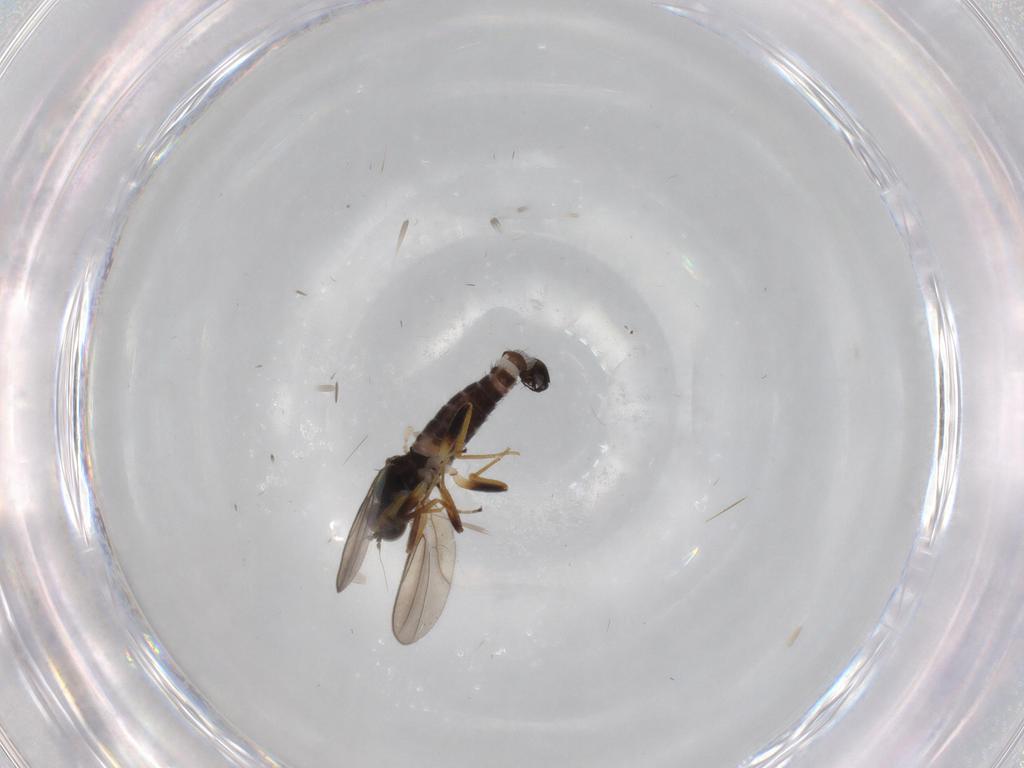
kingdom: Animalia
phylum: Arthropoda
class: Insecta
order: Diptera
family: Hybotidae
